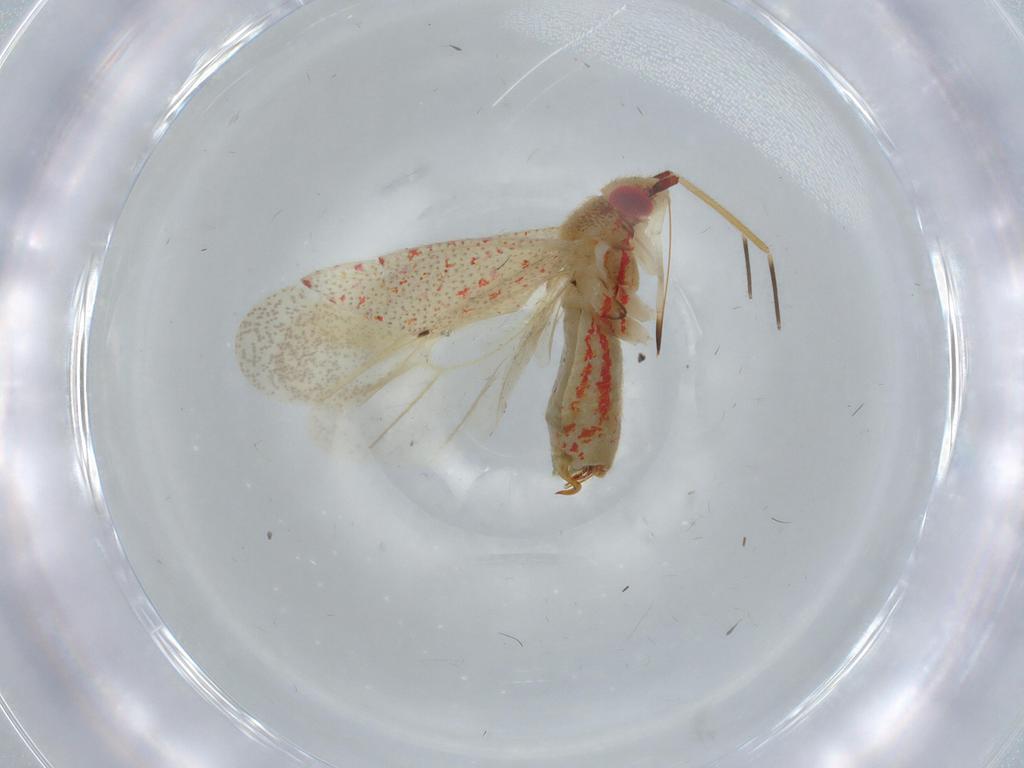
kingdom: Animalia
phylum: Arthropoda
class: Insecta
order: Hemiptera
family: Miridae
